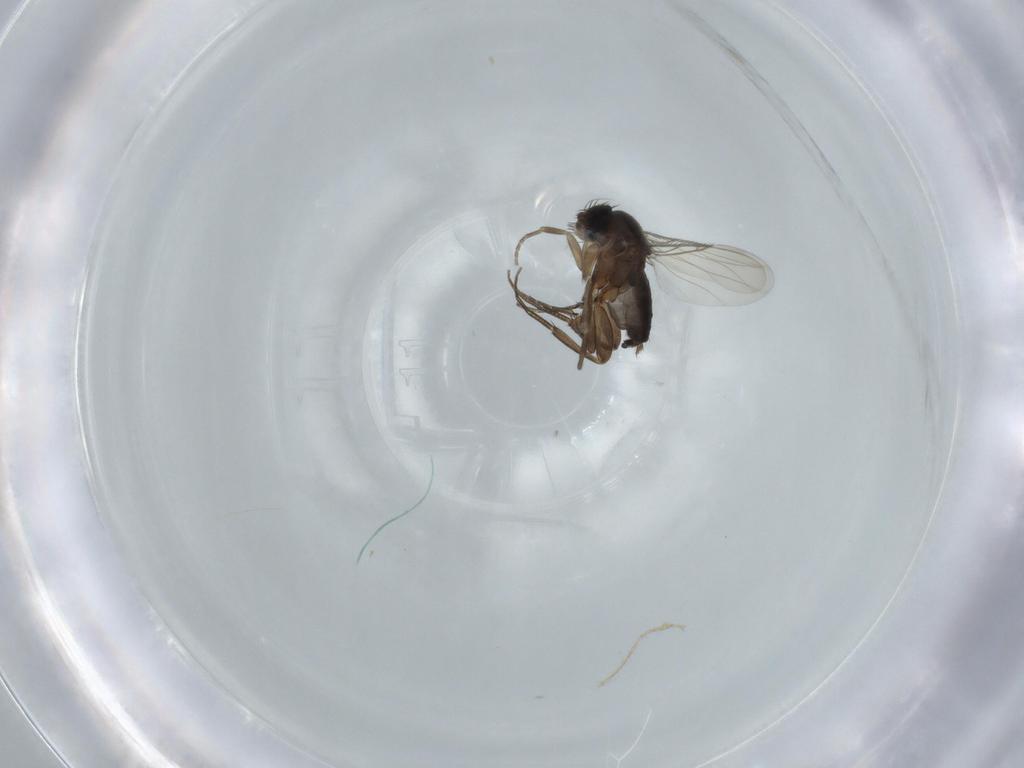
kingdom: Animalia
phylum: Arthropoda
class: Insecta
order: Diptera
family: Phoridae
